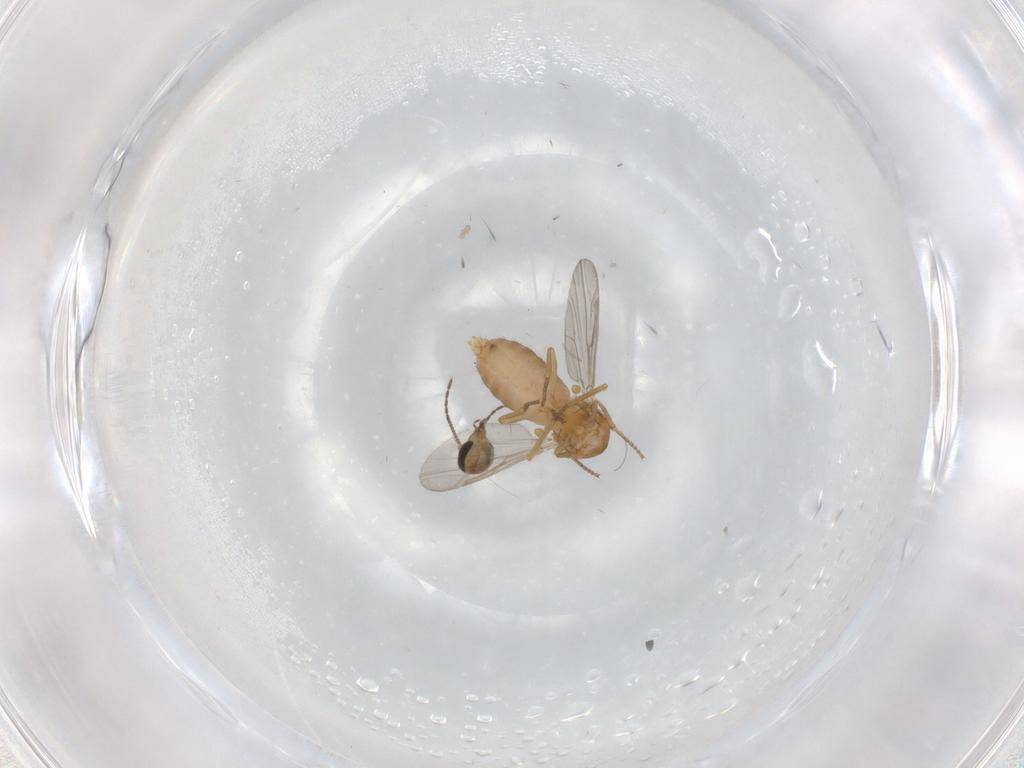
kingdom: Animalia
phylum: Arthropoda
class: Insecta
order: Diptera
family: Ceratopogonidae
